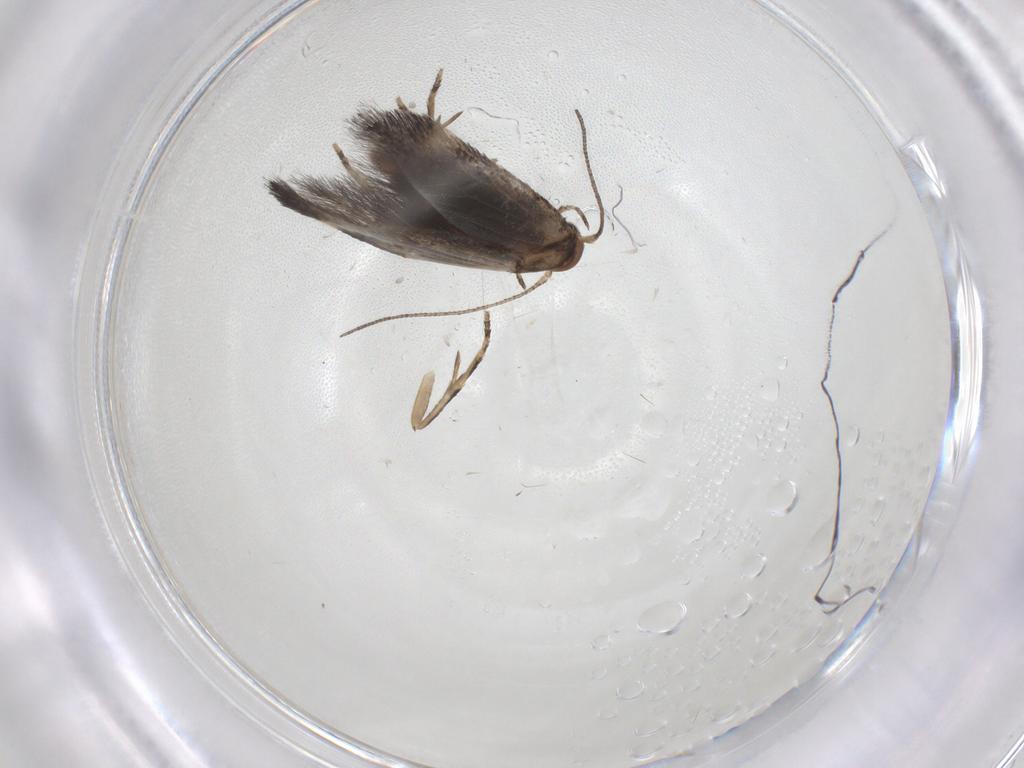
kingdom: Animalia
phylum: Arthropoda
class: Insecta
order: Lepidoptera
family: Elachistidae
